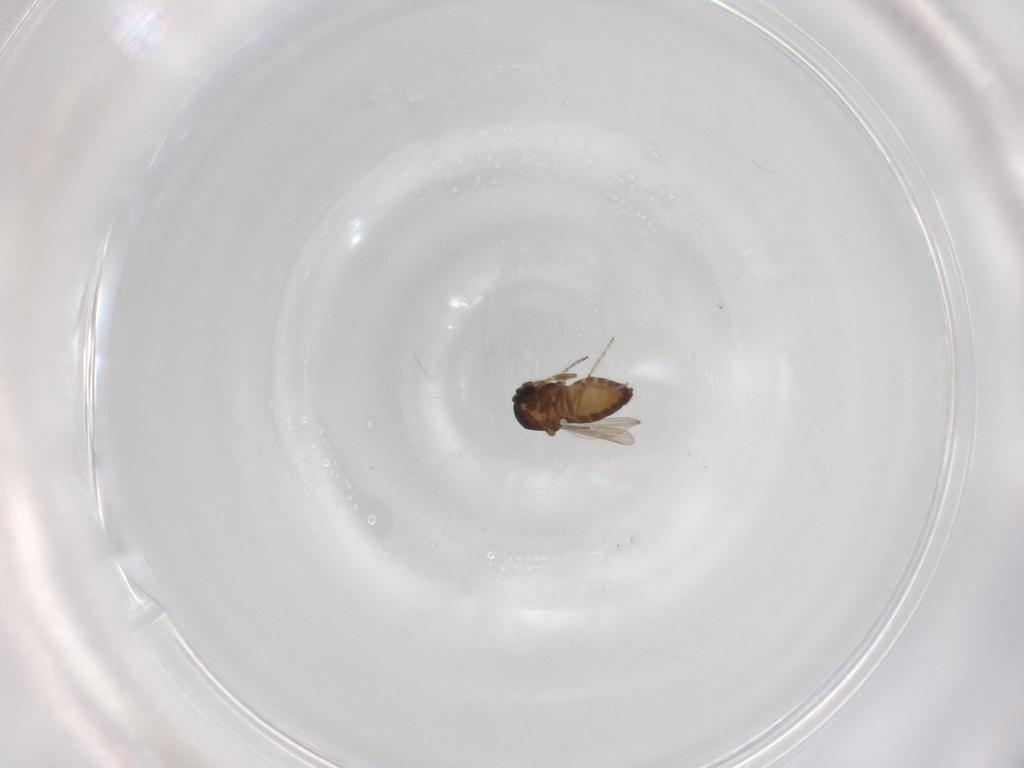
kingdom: Animalia
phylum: Arthropoda
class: Insecta
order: Diptera
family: Ceratopogonidae
